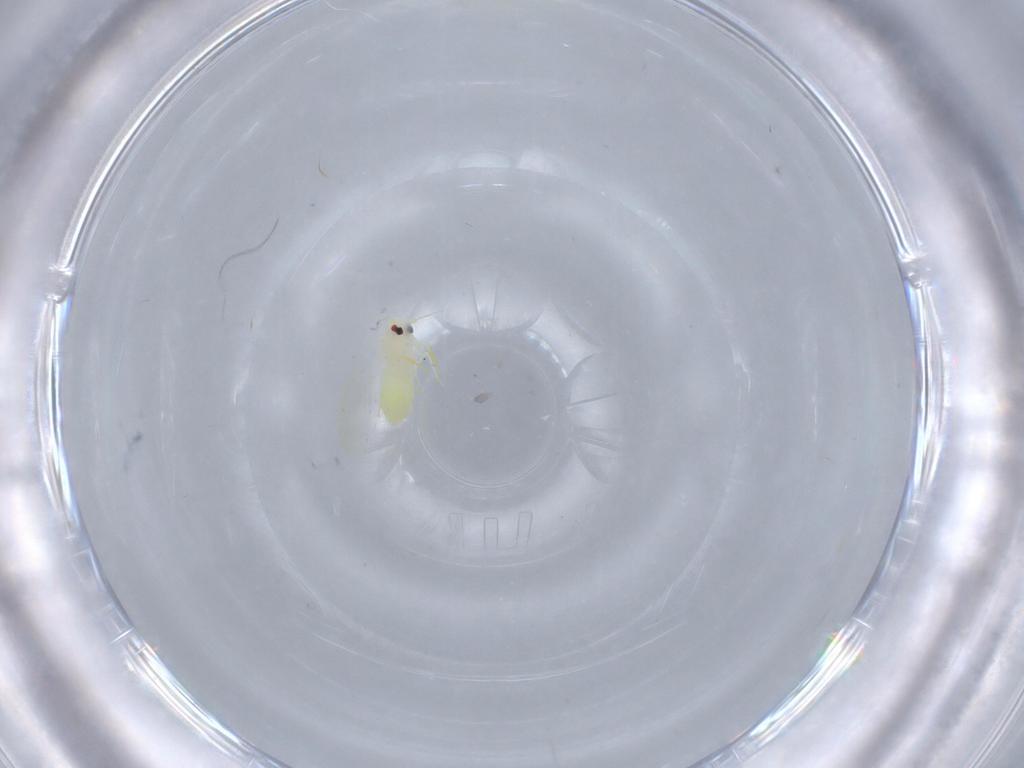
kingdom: Animalia
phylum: Arthropoda
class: Insecta
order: Hemiptera
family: Aleyrodidae
